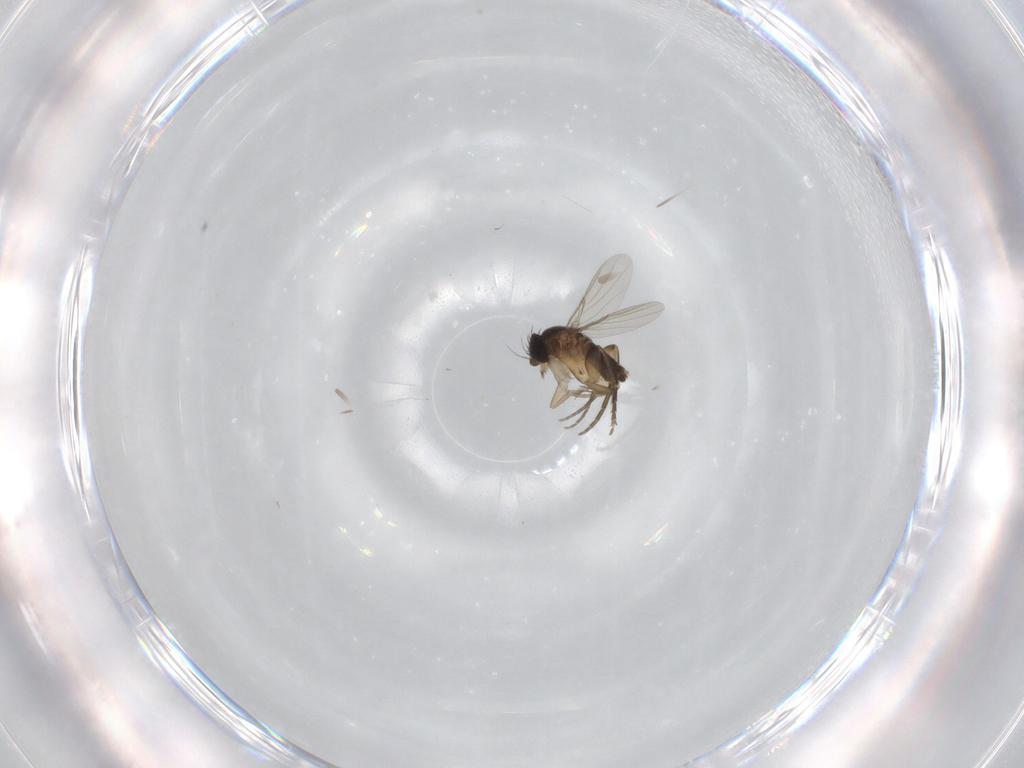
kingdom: Animalia
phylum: Arthropoda
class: Insecta
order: Diptera
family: Phoridae
